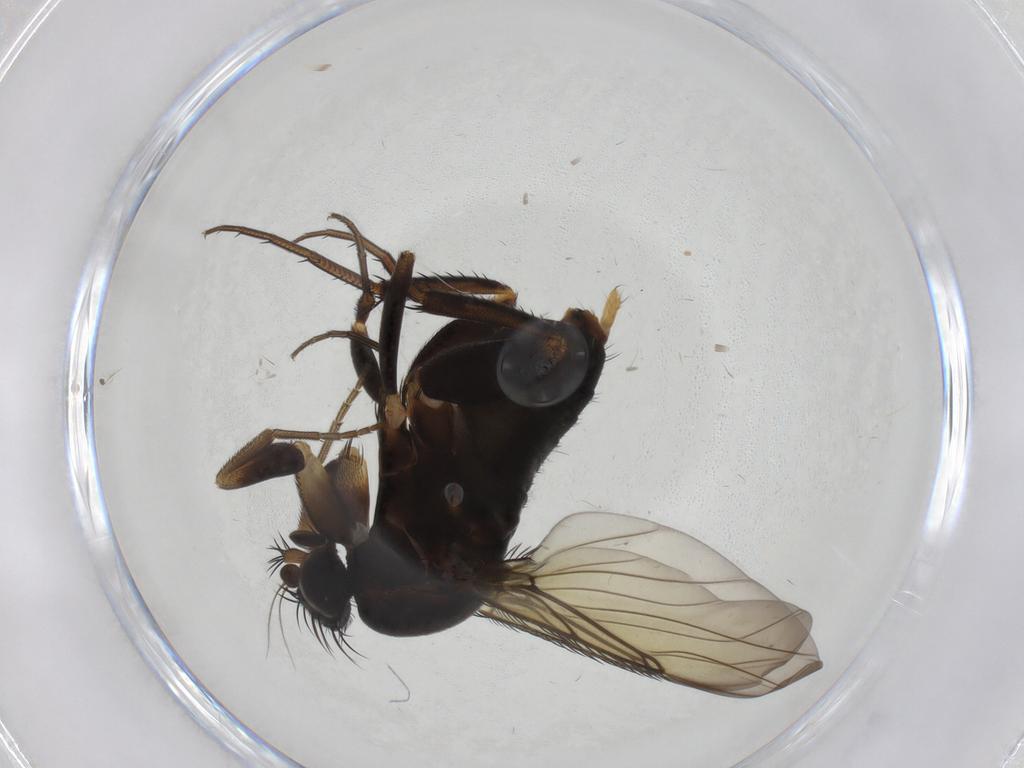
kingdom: Animalia
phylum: Arthropoda
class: Insecta
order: Diptera
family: Phoridae
